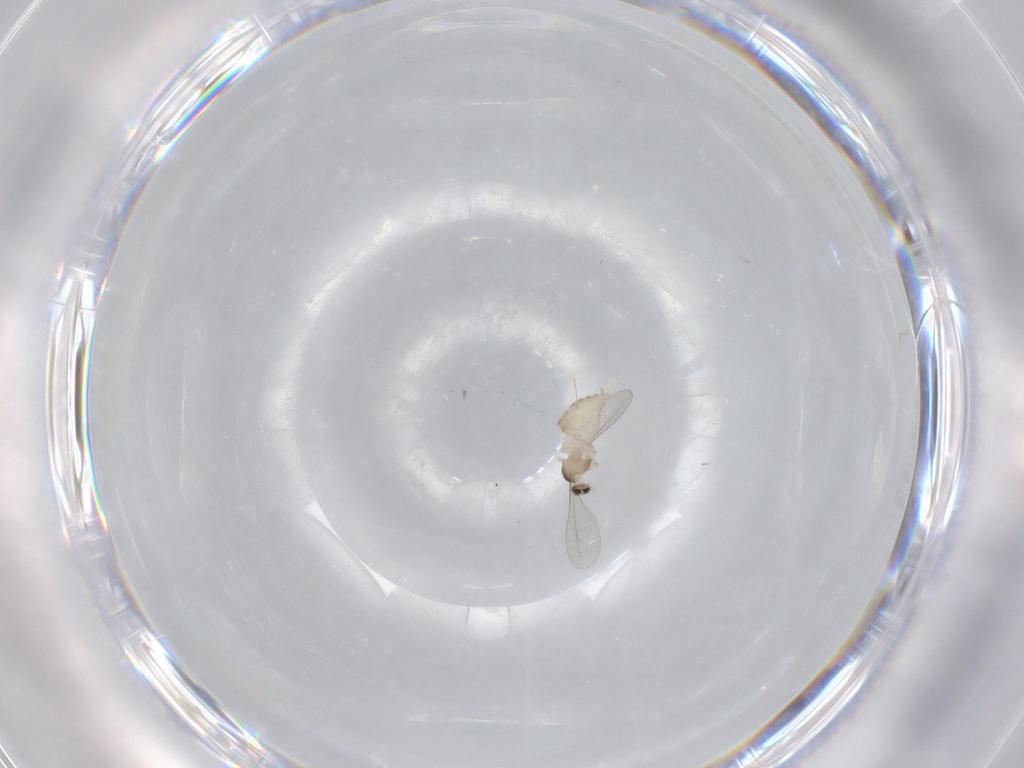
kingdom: Animalia
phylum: Arthropoda
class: Insecta
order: Diptera
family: Cecidomyiidae
